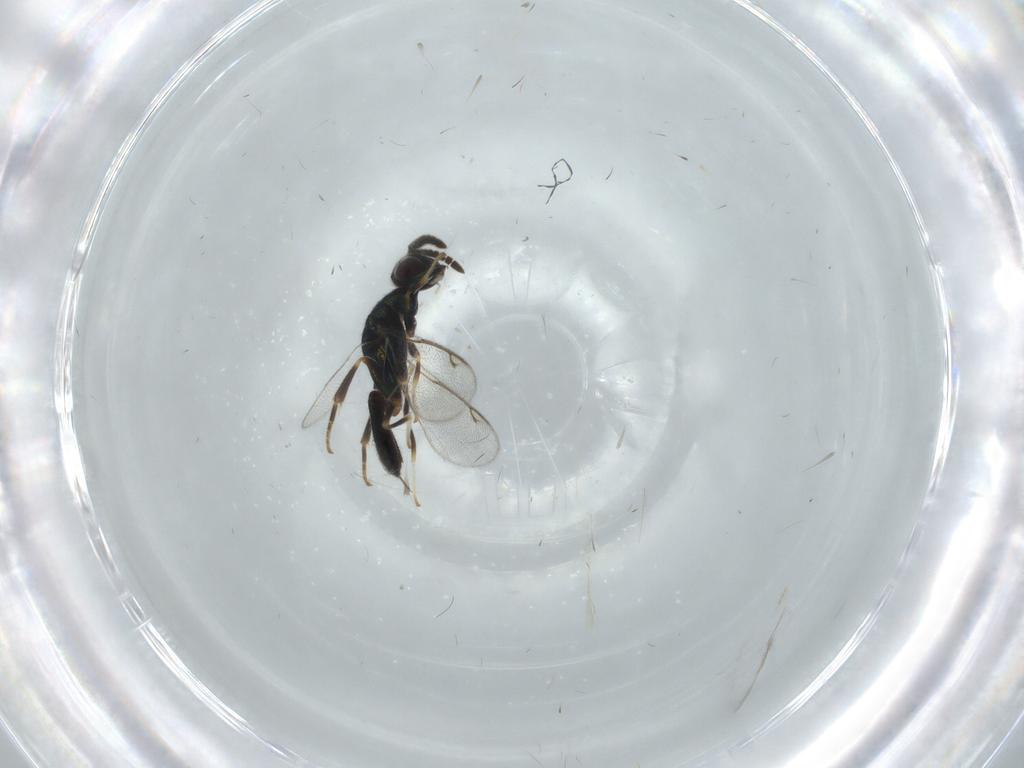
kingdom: Animalia
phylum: Arthropoda
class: Insecta
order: Hymenoptera
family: Cleonyminae
